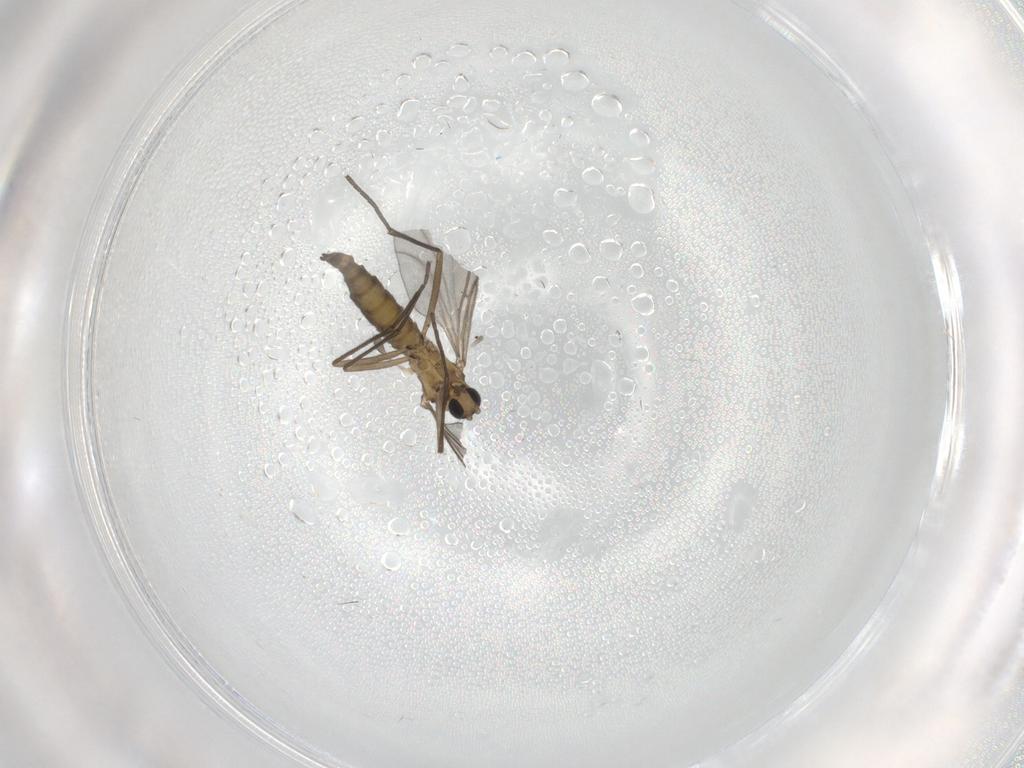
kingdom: Animalia
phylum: Arthropoda
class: Insecta
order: Diptera
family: Sciaridae
